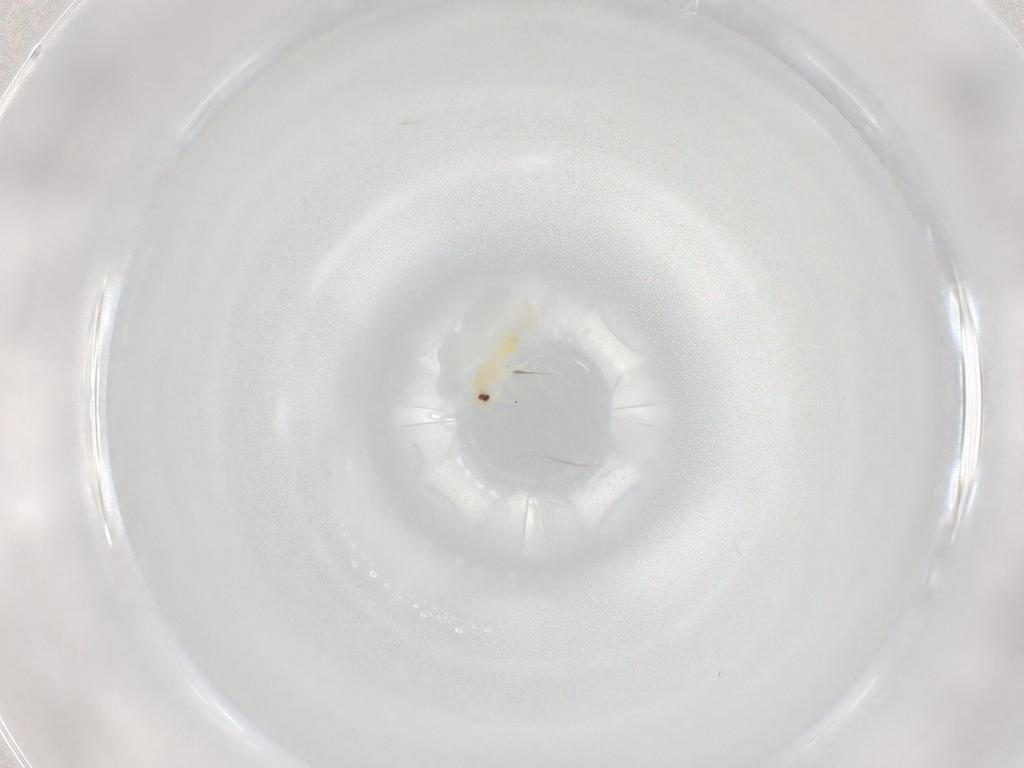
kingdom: Animalia
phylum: Arthropoda
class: Insecta
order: Hemiptera
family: Aleyrodidae
